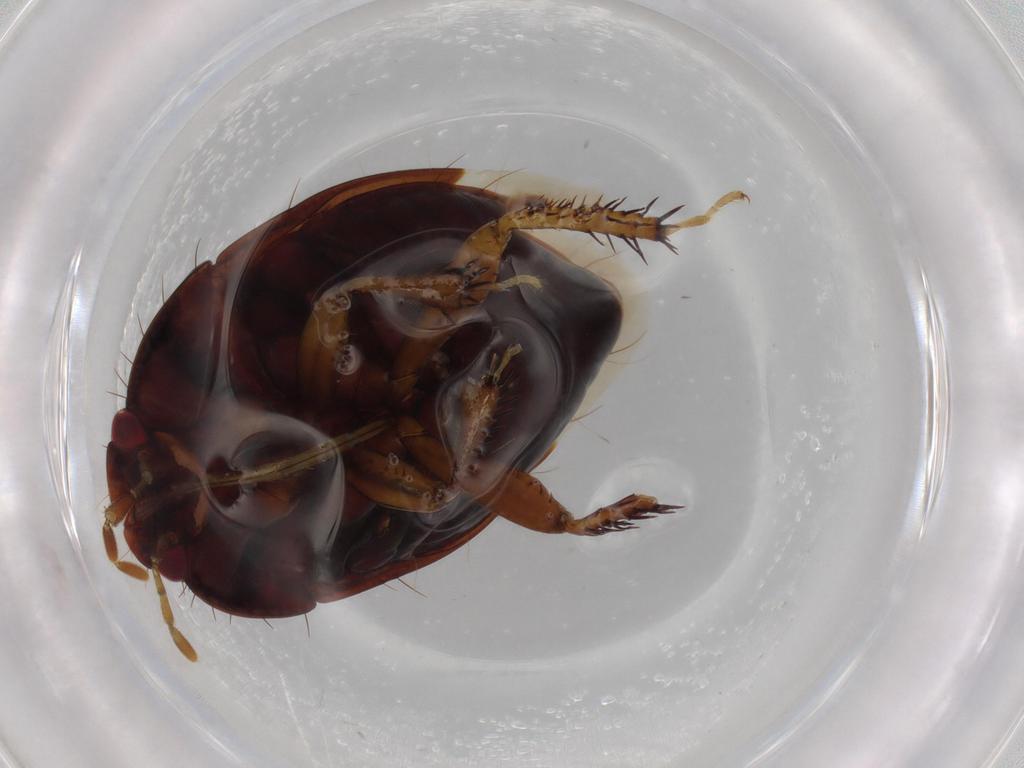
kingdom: Animalia
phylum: Arthropoda
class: Insecta
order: Hemiptera
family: Cydnidae
